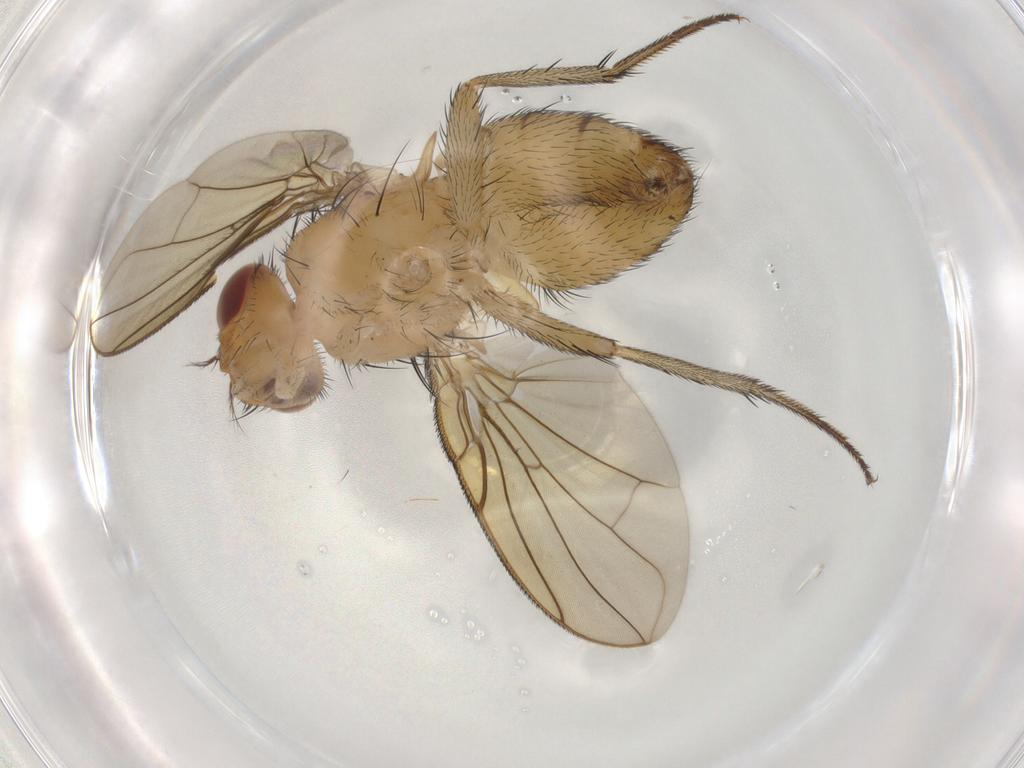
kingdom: Animalia
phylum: Arthropoda
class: Insecta
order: Diptera
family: Calliphoridae
